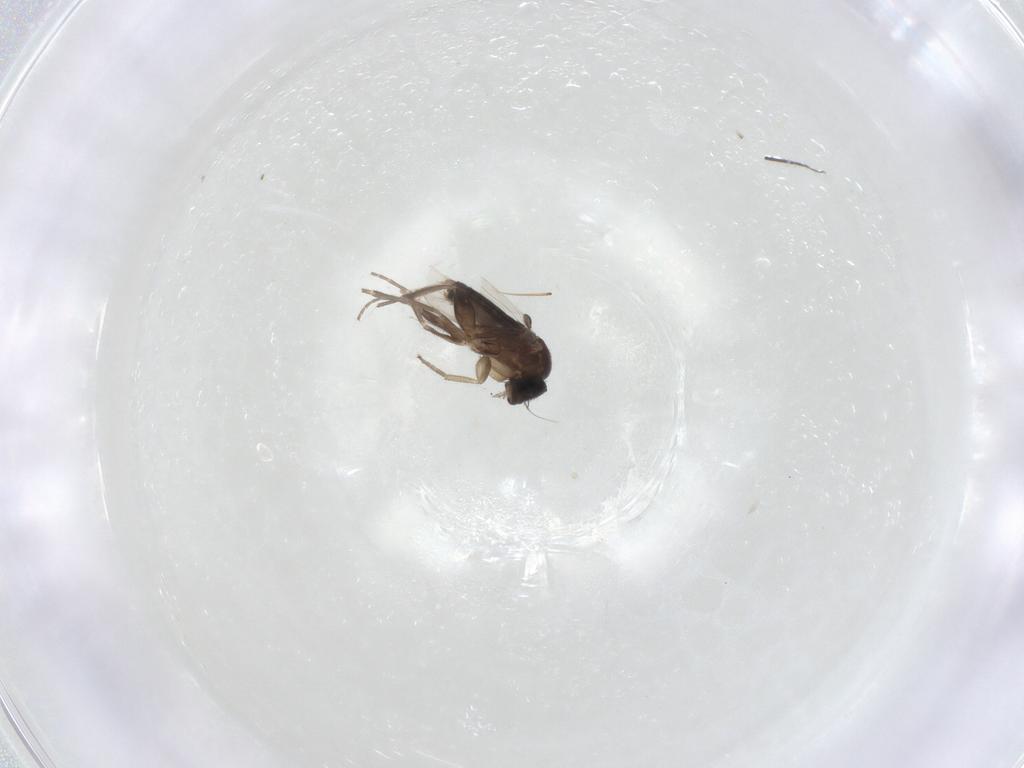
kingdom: Animalia
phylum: Arthropoda
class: Insecta
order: Diptera
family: Phoridae
